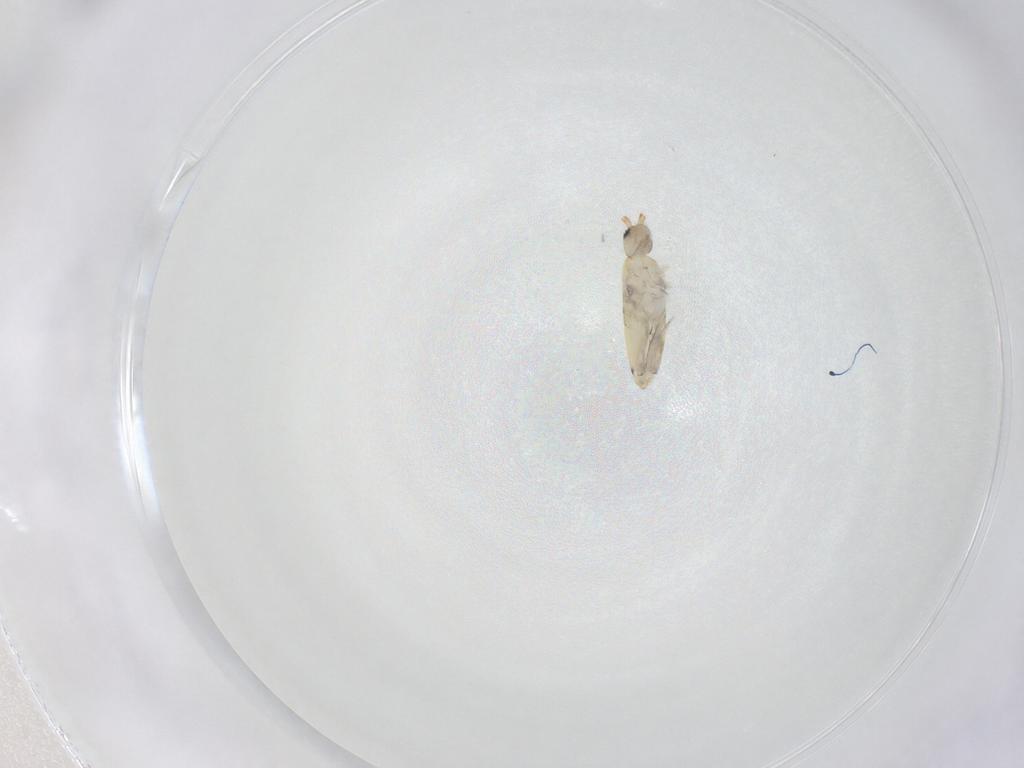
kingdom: Animalia
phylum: Arthropoda
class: Collembola
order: Entomobryomorpha
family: Entomobryidae
